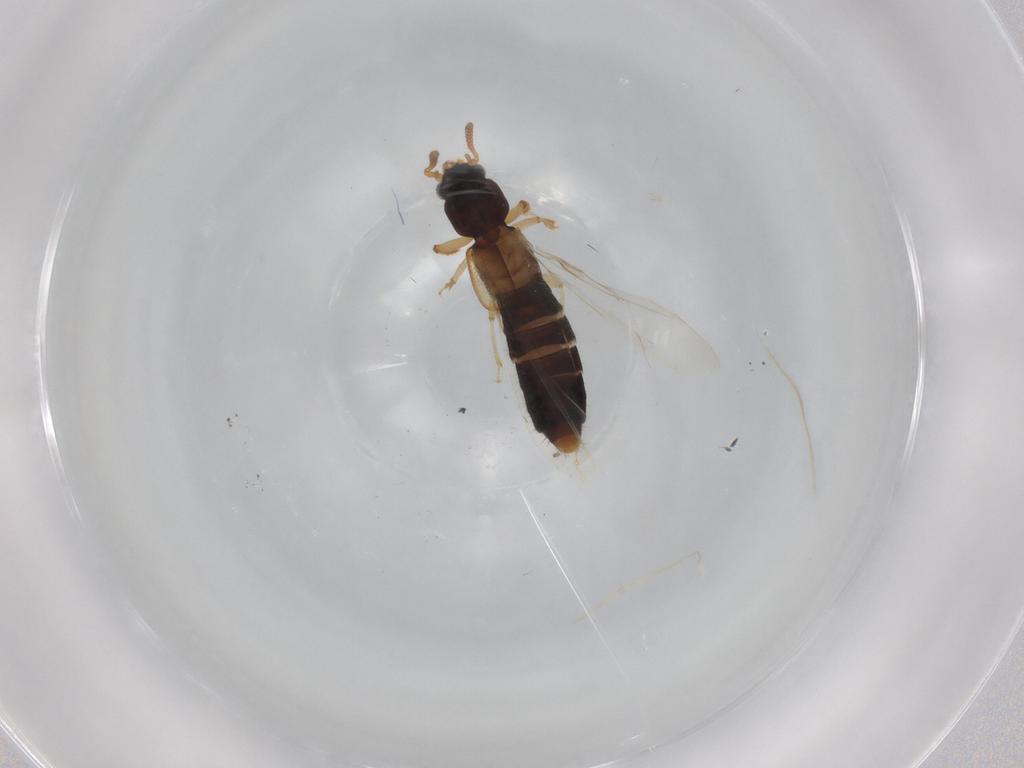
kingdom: Animalia
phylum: Arthropoda
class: Insecta
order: Coleoptera
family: Staphylinidae
